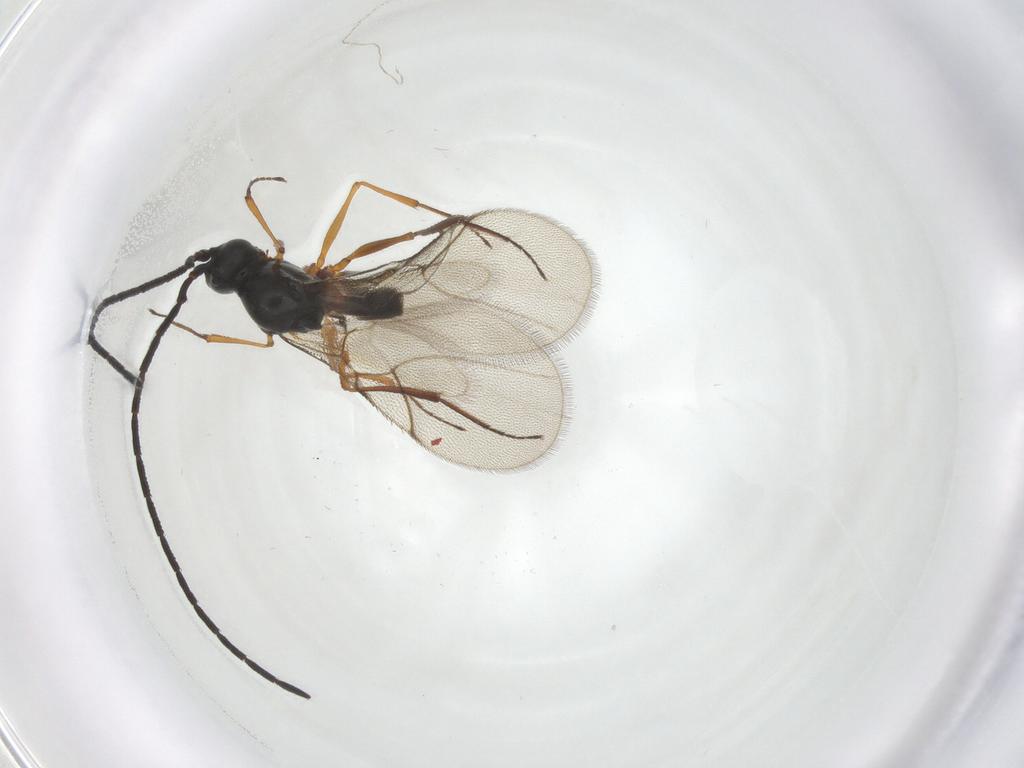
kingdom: Animalia
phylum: Arthropoda
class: Insecta
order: Hymenoptera
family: Figitidae
